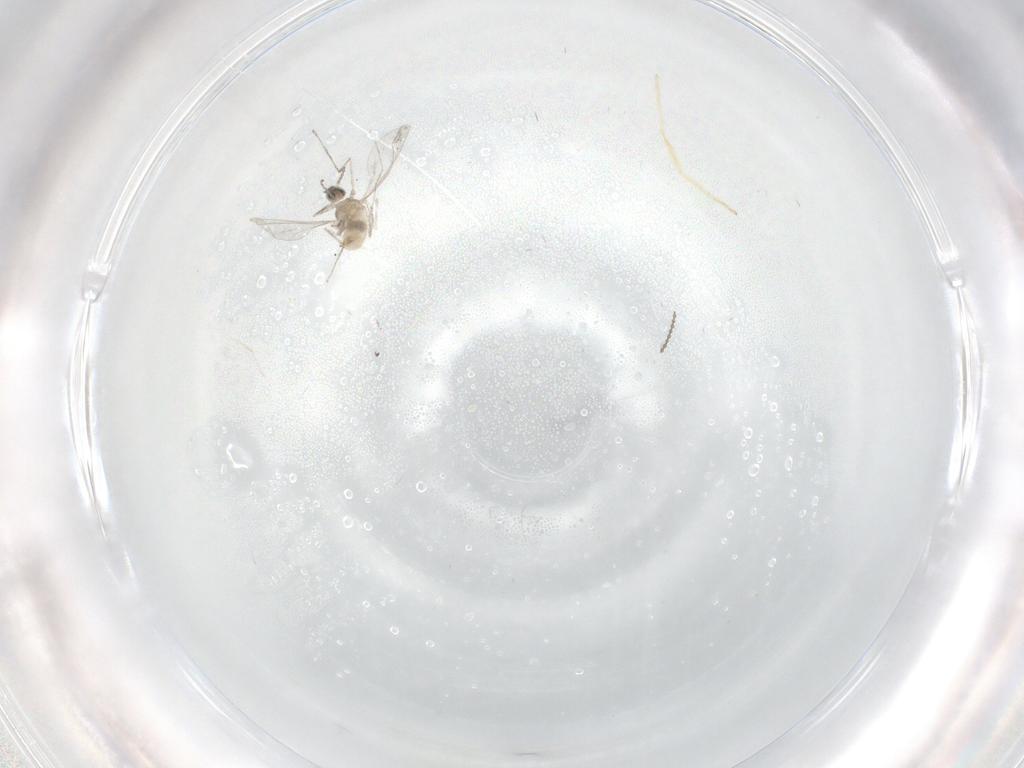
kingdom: Animalia
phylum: Arthropoda
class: Insecta
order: Diptera
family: Cecidomyiidae
